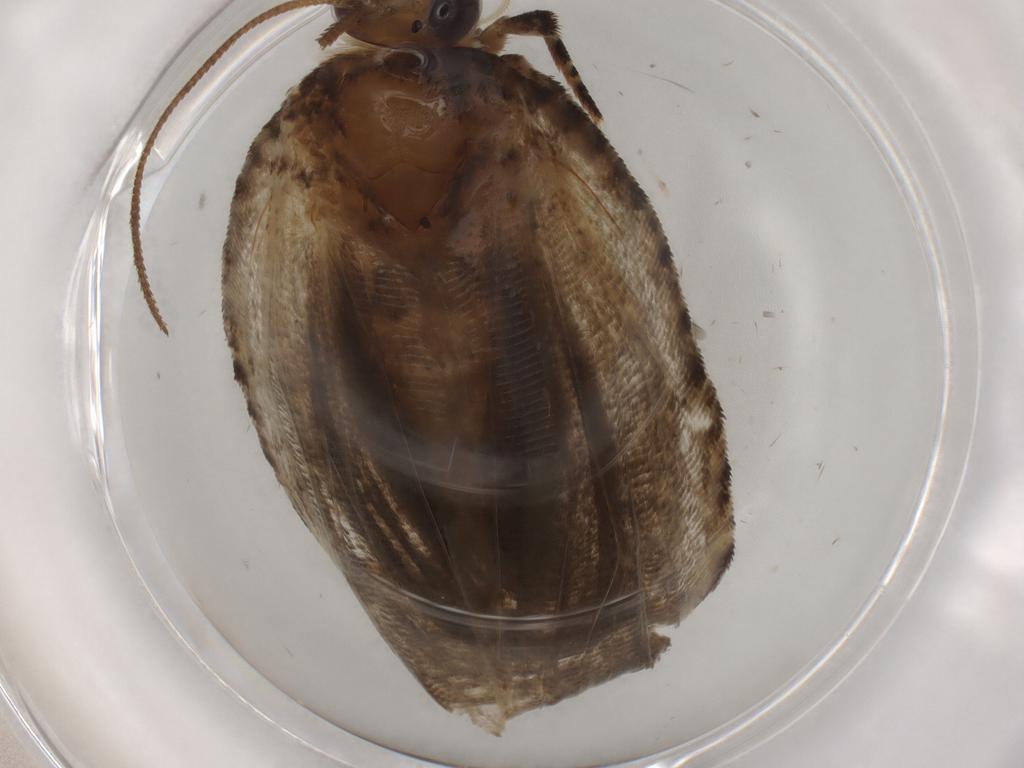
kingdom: Animalia
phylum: Arthropoda
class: Insecta
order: Lepidoptera
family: Tortricidae
